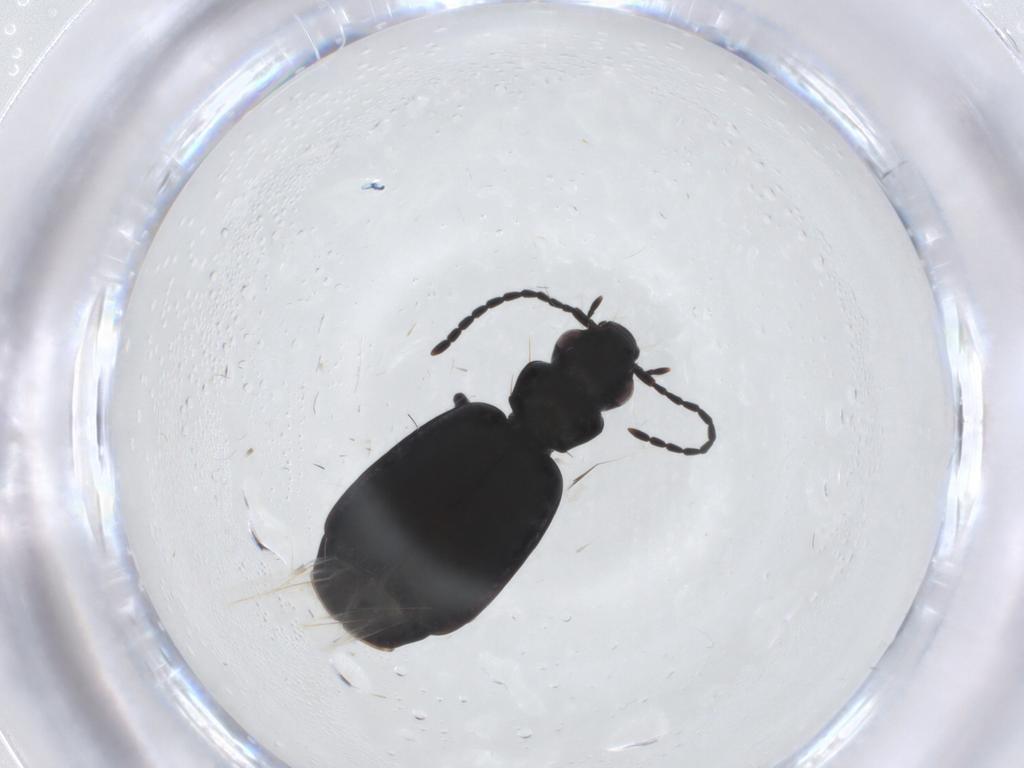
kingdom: Animalia
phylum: Arthropoda
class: Insecta
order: Coleoptera
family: Carabidae
